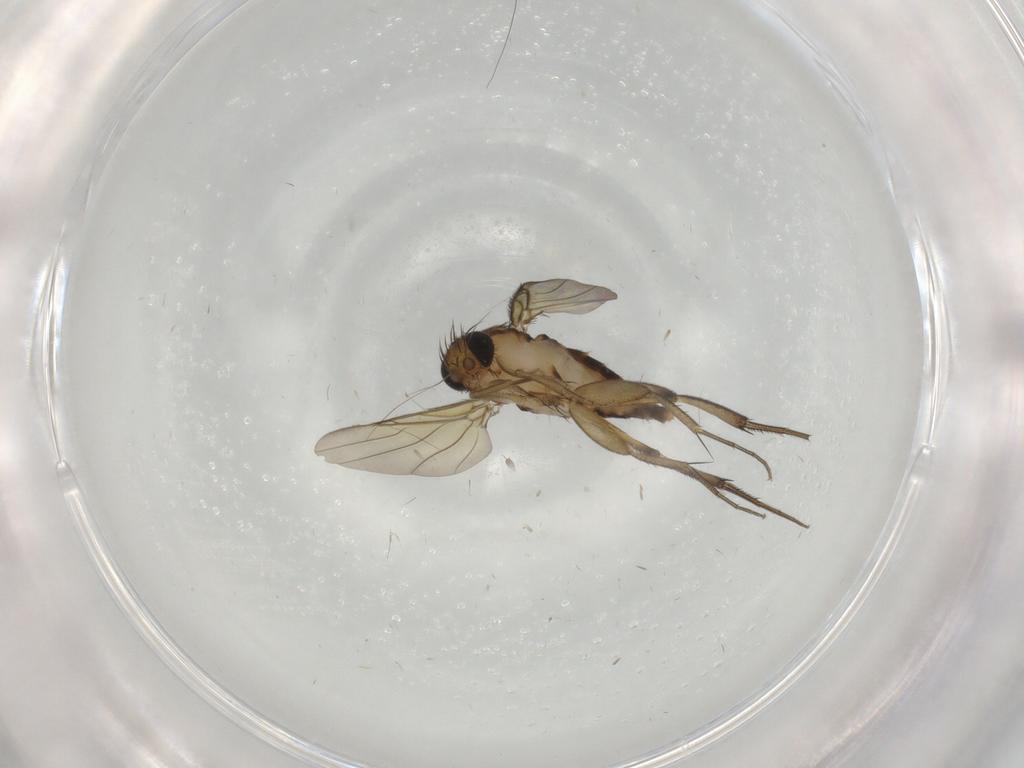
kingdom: Animalia
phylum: Arthropoda
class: Insecta
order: Diptera
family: Phoridae
